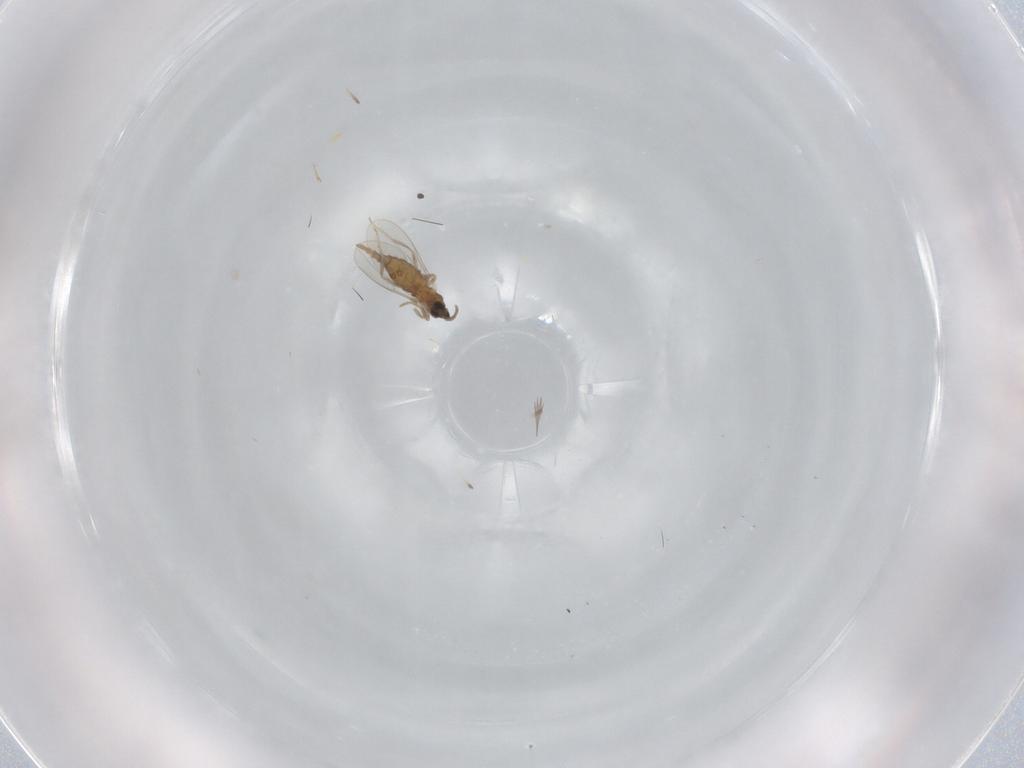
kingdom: Animalia
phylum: Arthropoda
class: Insecta
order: Diptera
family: Cecidomyiidae
